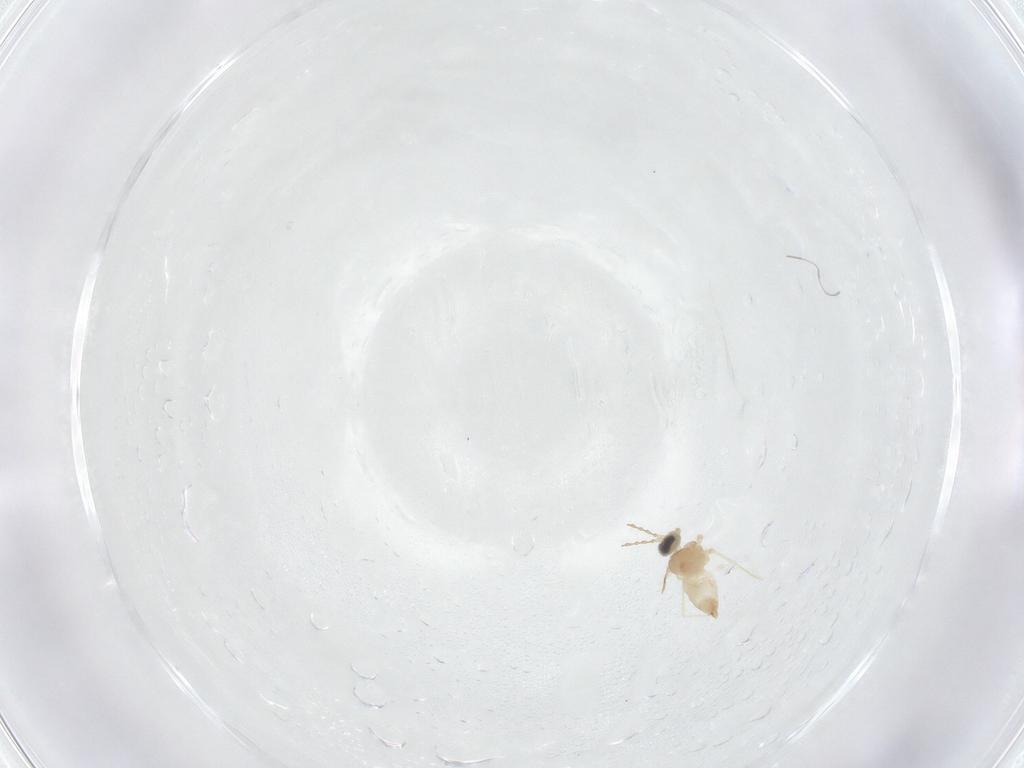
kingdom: Animalia
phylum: Arthropoda
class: Insecta
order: Diptera
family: Cecidomyiidae
